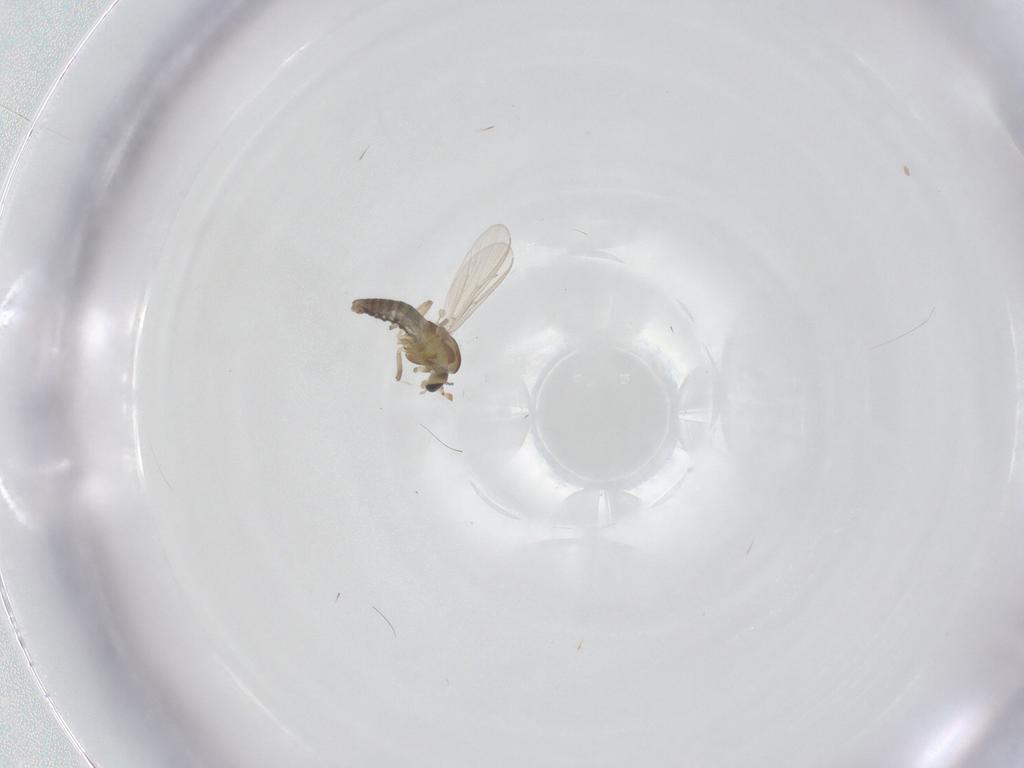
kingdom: Animalia
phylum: Arthropoda
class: Insecta
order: Diptera
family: Chironomidae
